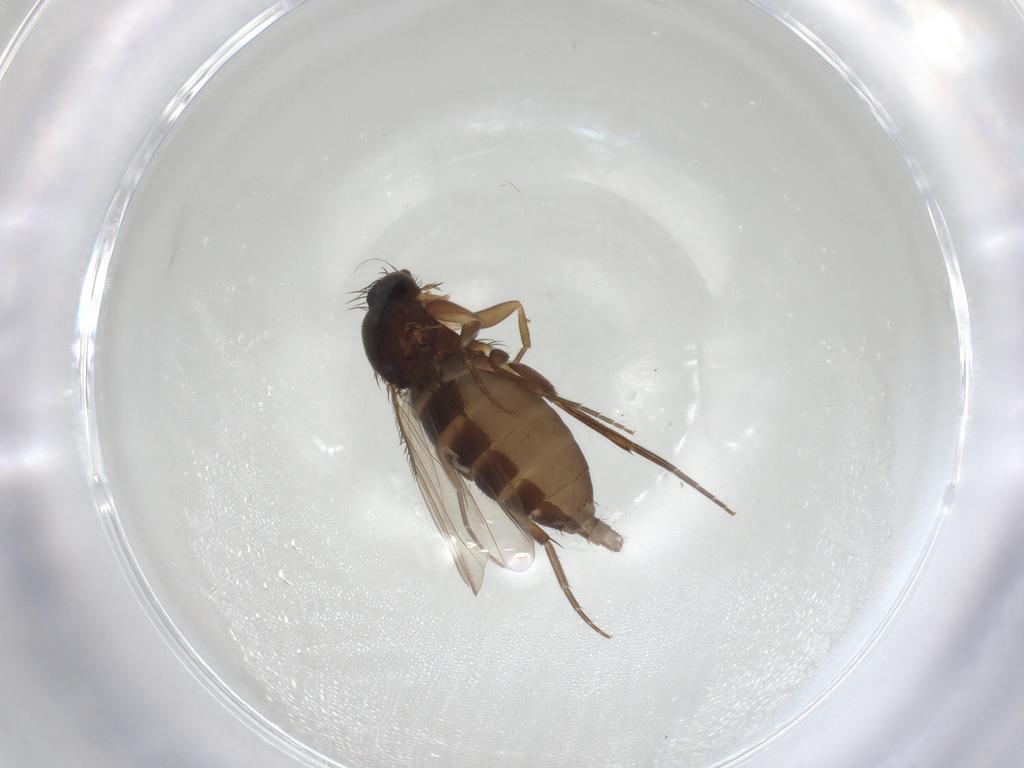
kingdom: Animalia
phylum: Arthropoda
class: Insecta
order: Diptera
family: Phoridae
